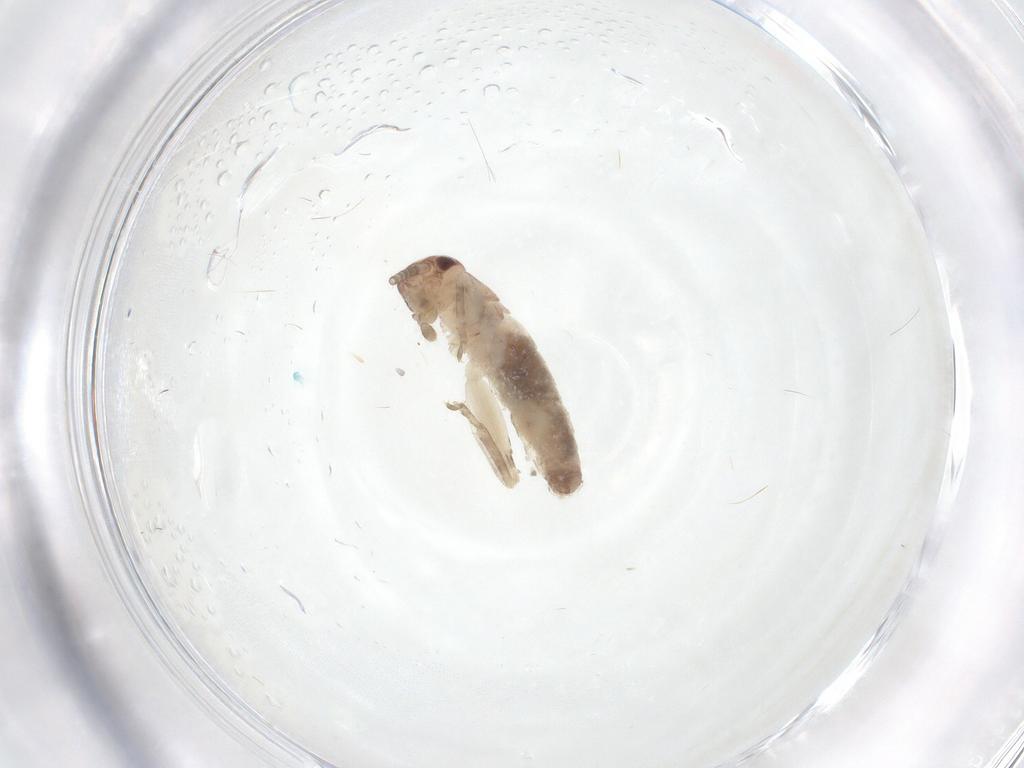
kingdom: Animalia
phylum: Arthropoda
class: Insecta
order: Orthoptera
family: Gryllidae
